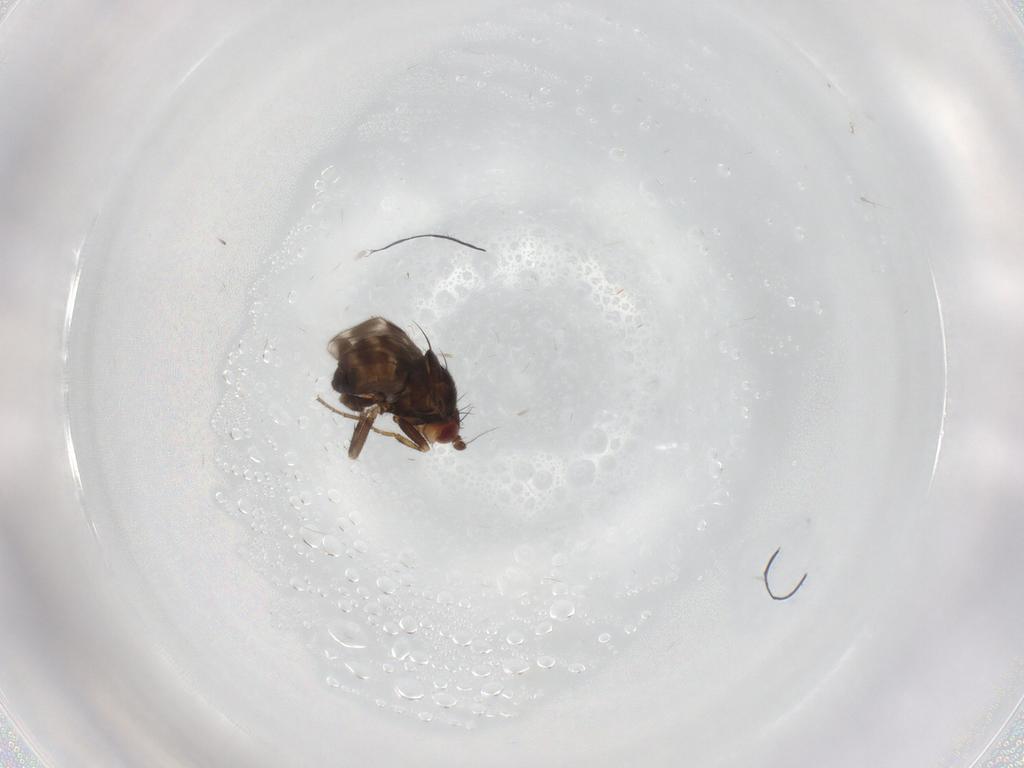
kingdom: Animalia
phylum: Arthropoda
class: Insecta
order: Diptera
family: Sphaeroceridae
